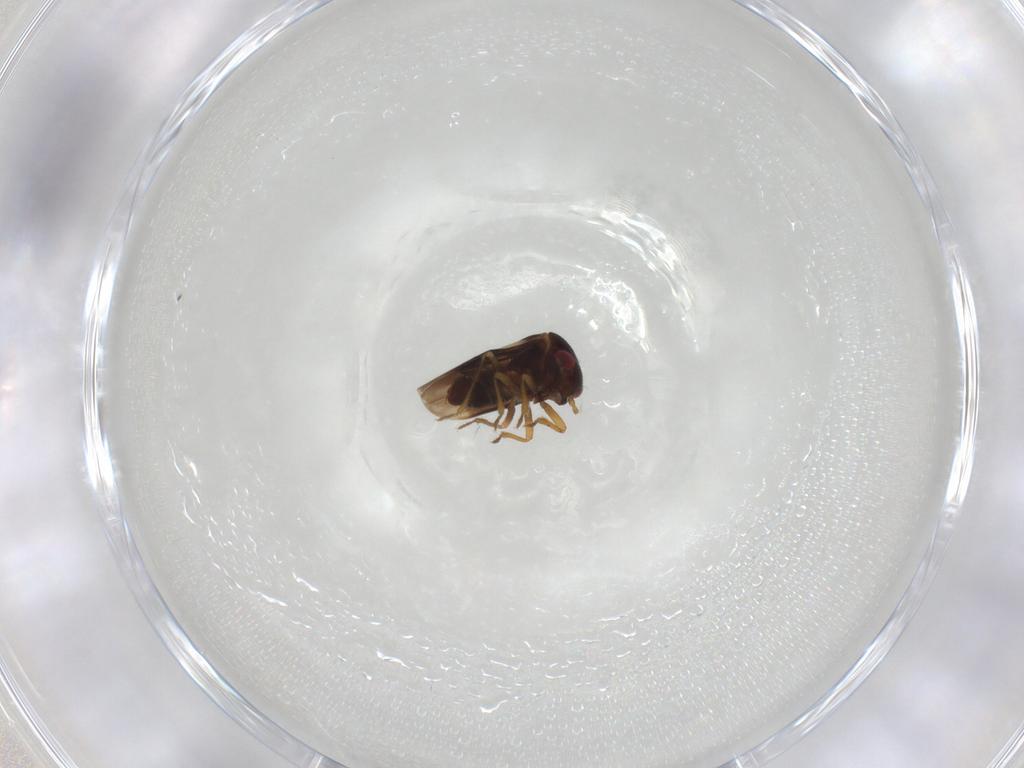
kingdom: Animalia
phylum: Arthropoda
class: Insecta
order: Hemiptera
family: Schizopteridae
